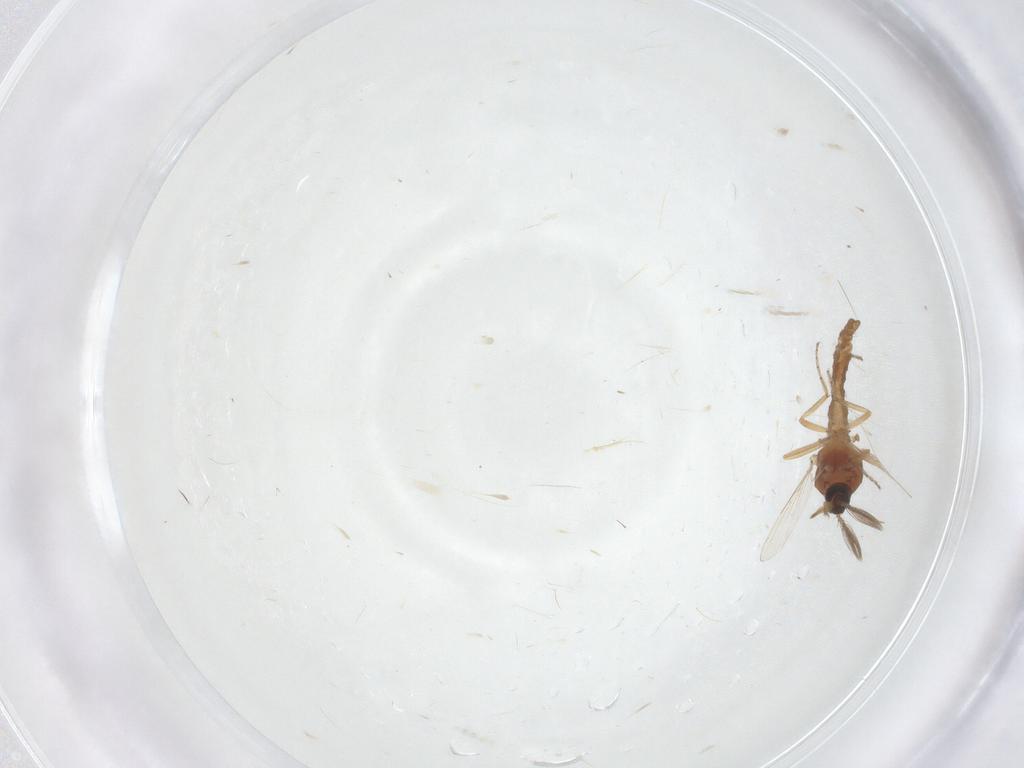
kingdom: Animalia
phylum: Arthropoda
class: Insecta
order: Diptera
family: Ceratopogonidae
